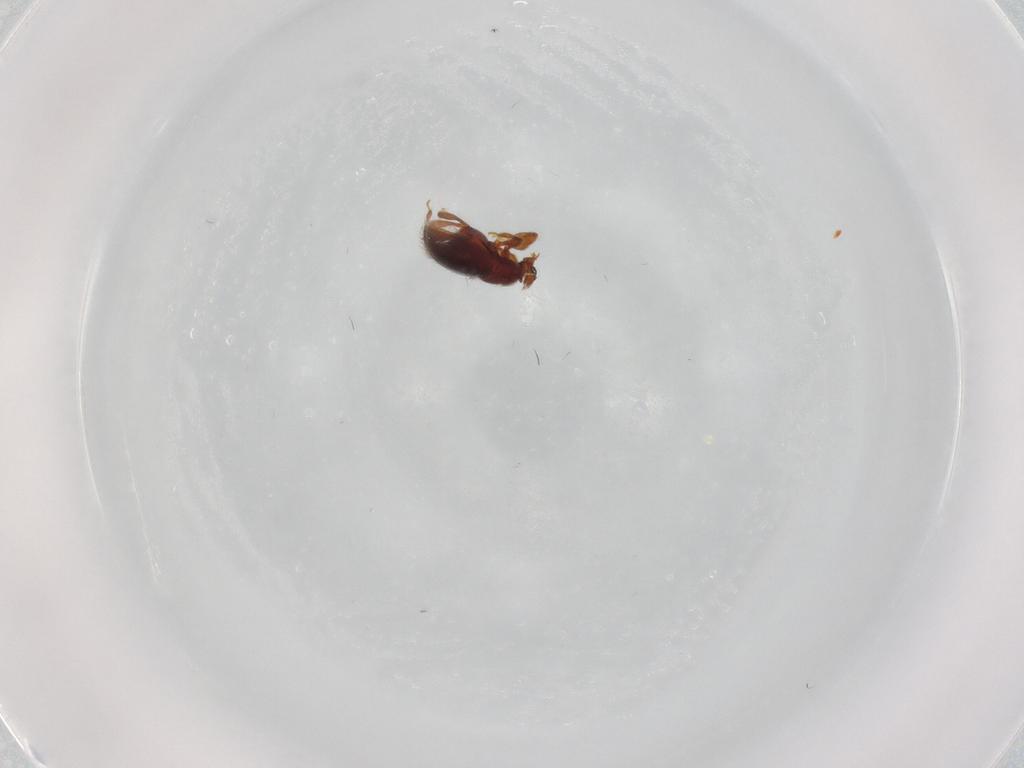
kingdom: Animalia
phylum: Arthropoda
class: Insecta
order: Coleoptera
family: Staphylinidae
